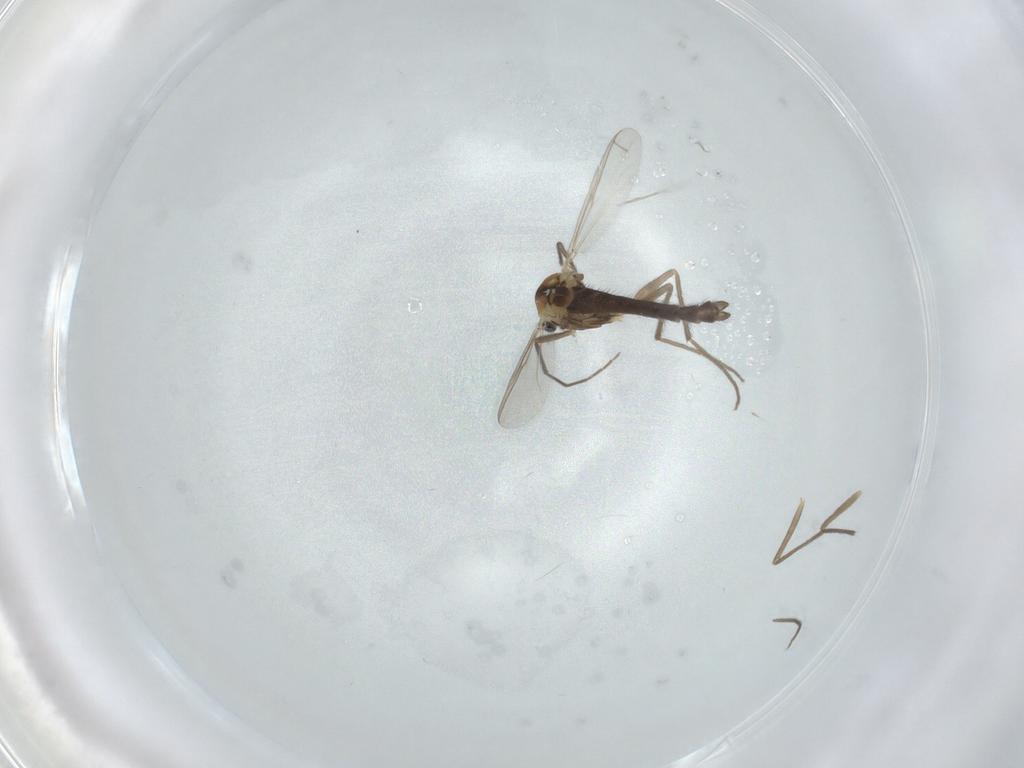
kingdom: Animalia
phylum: Arthropoda
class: Insecta
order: Diptera
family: Chironomidae
